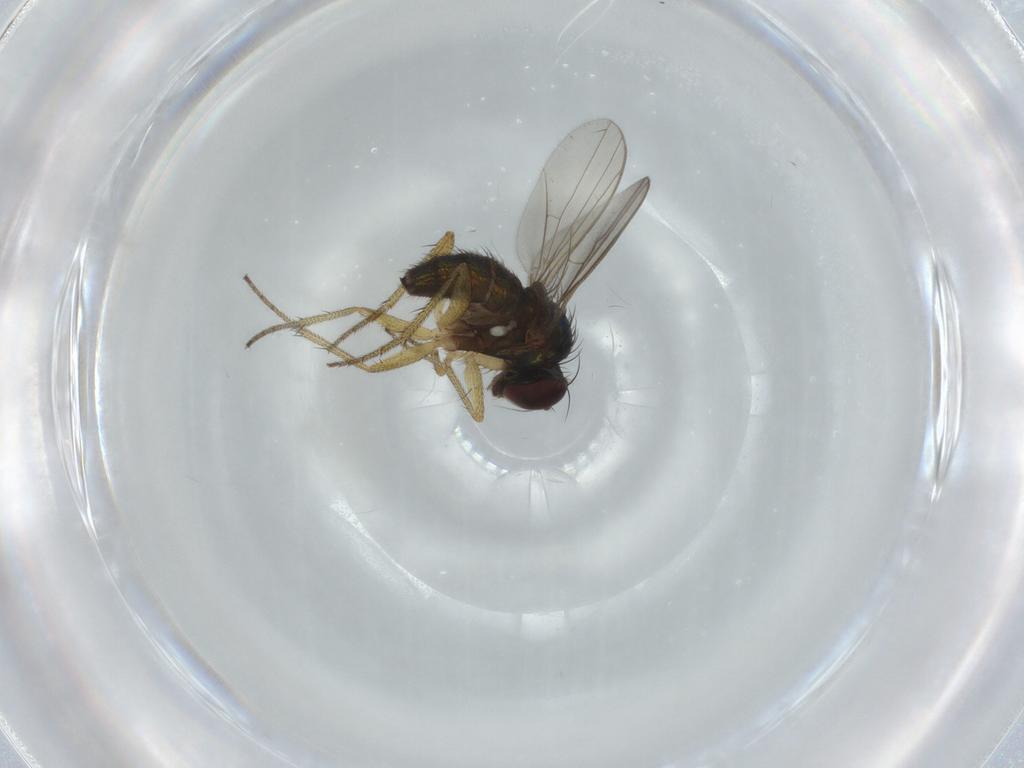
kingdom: Animalia
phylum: Arthropoda
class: Insecta
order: Diptera
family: Dolichopodidae
